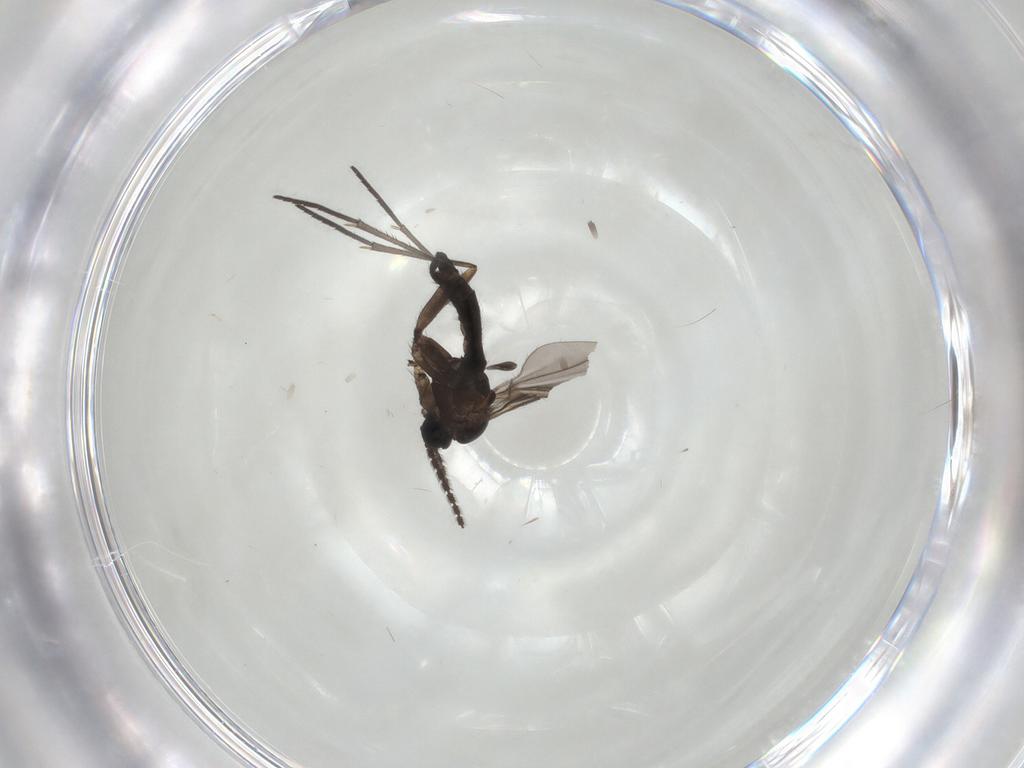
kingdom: Animalia
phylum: Arthropoda
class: Insecta
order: Diptera
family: Sciaridae
